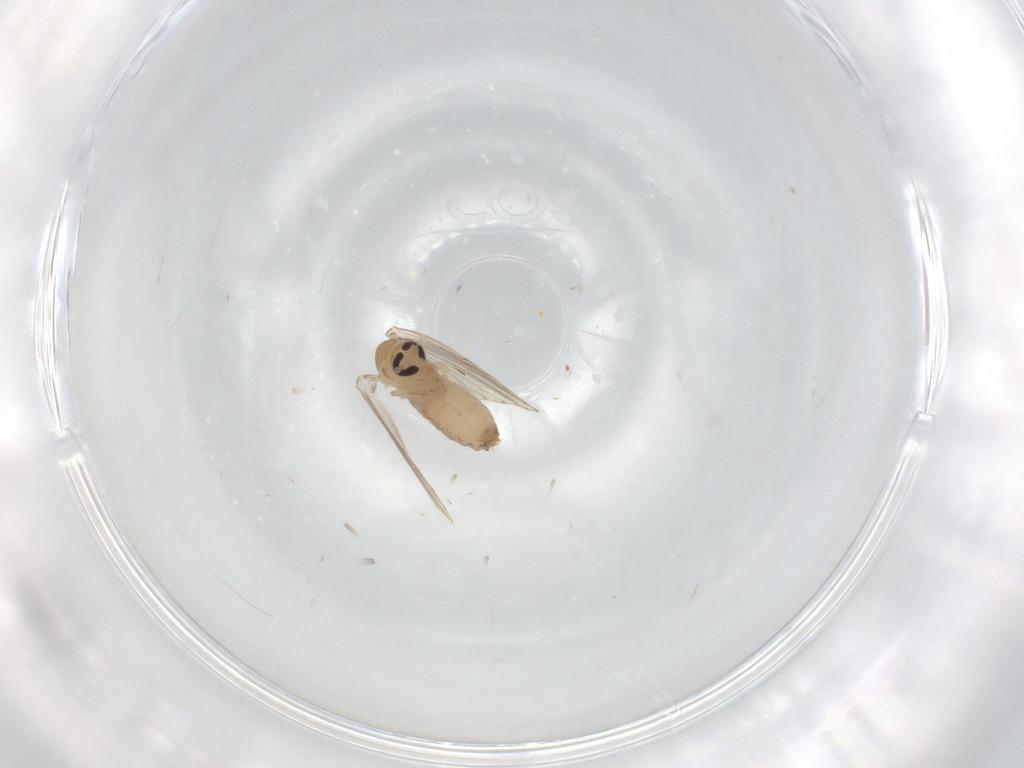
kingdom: Animalia
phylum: Arthropoda
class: Insecta
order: Diptera
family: Psychodidae
